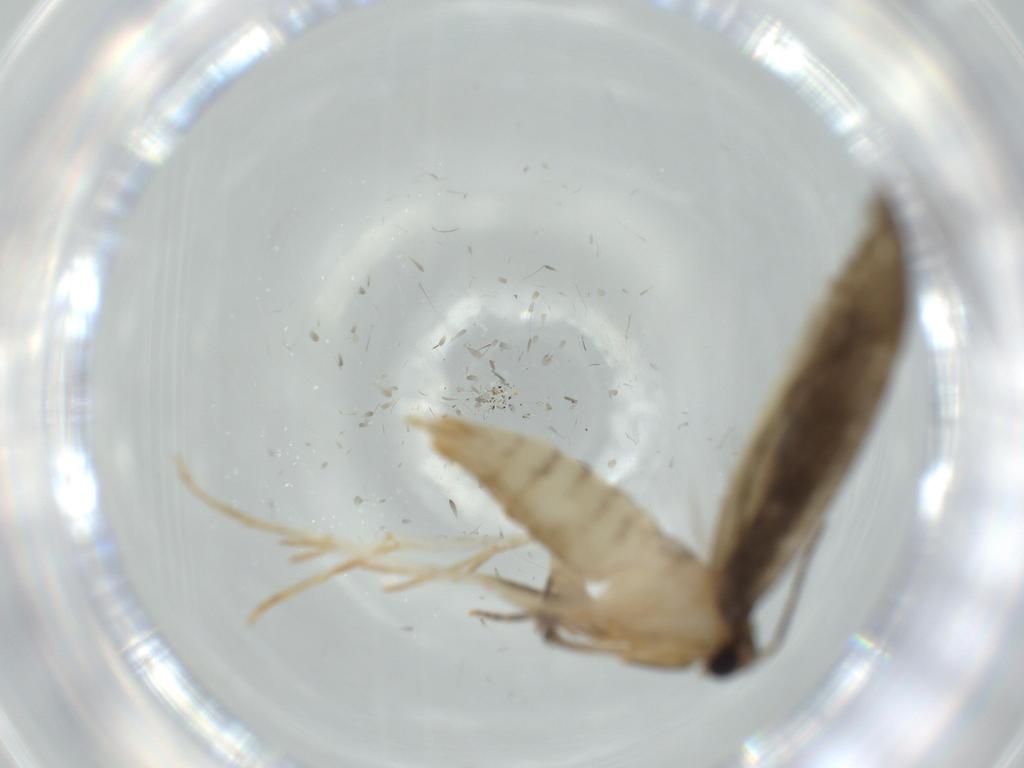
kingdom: Animalia
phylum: Arthropoda
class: Insecta
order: Lepidoptera
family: Tineidae
